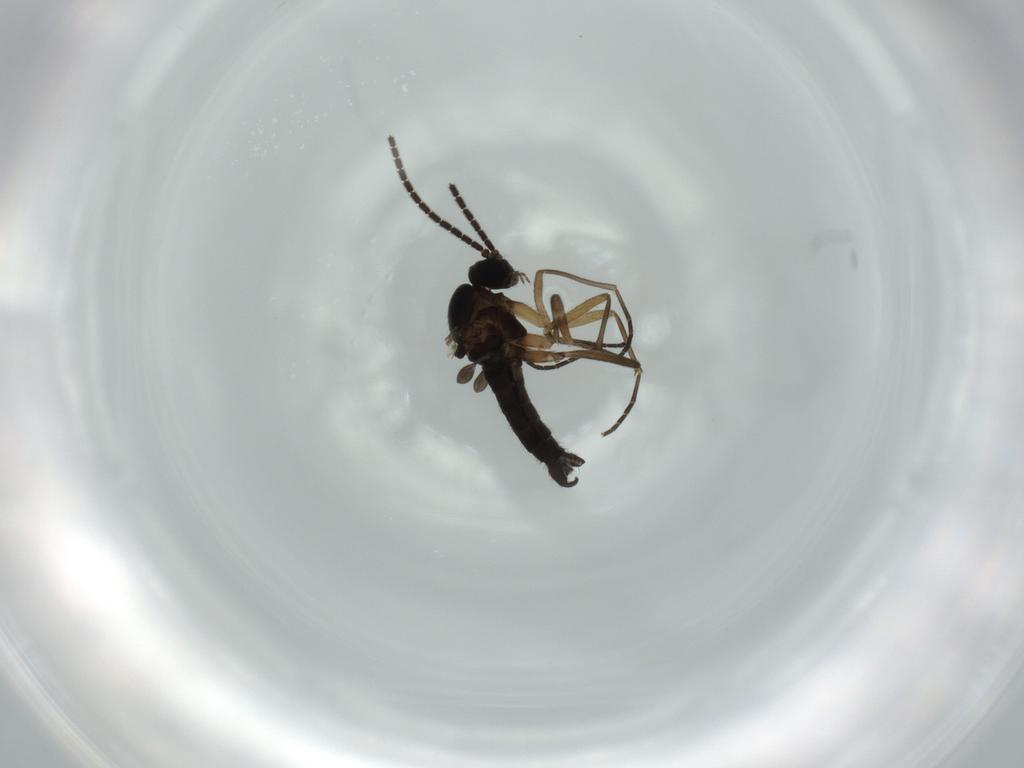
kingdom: Animalia
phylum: Arthropoda
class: Insecta
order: Diptera
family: Sciaridae
